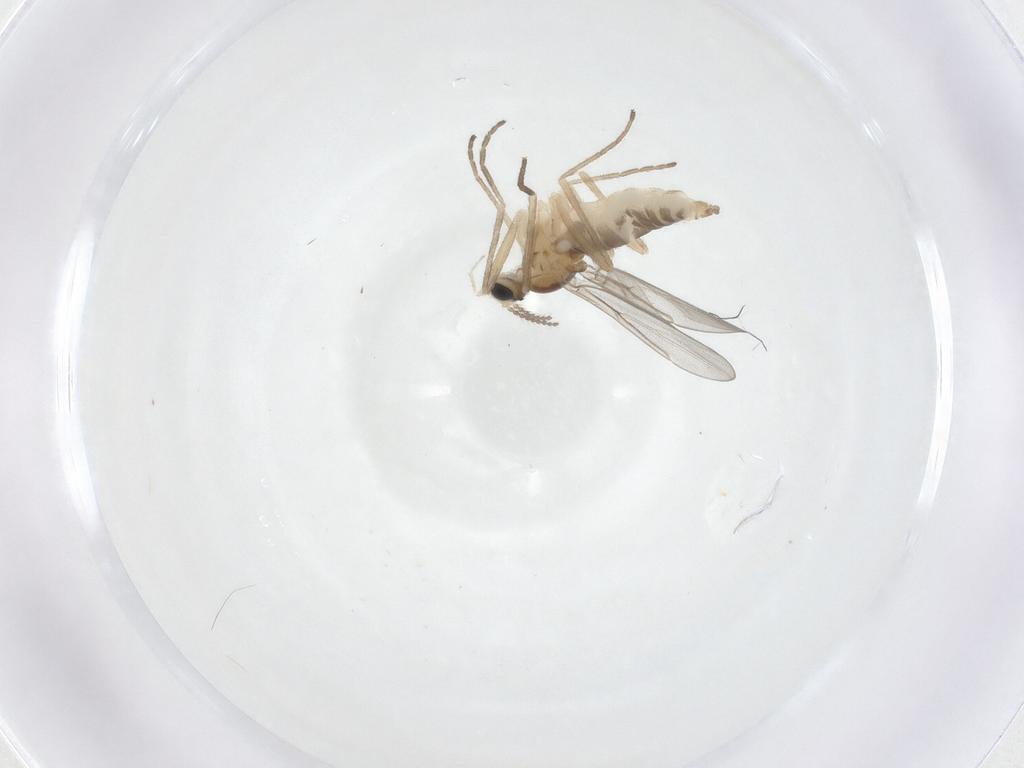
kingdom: Animalia
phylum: Arthropoda
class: Insecta
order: Diptera
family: Cecidomyiidae
